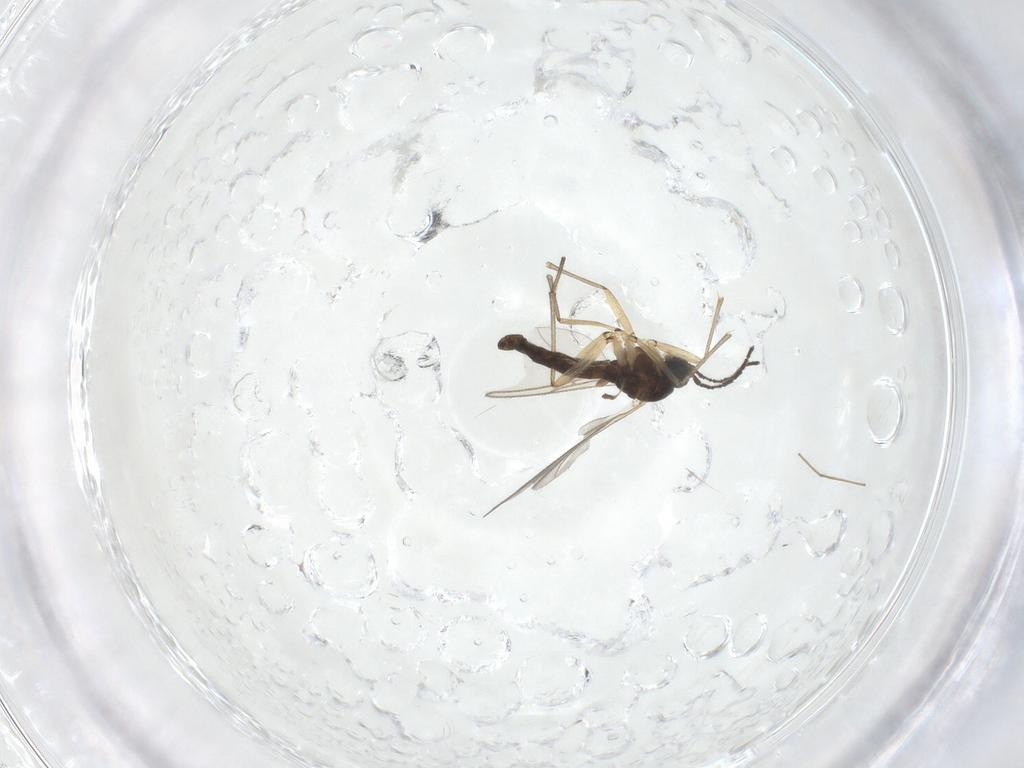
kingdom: Animalia
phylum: Arthropoda
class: Insecta
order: Diptera
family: Sciaridae
